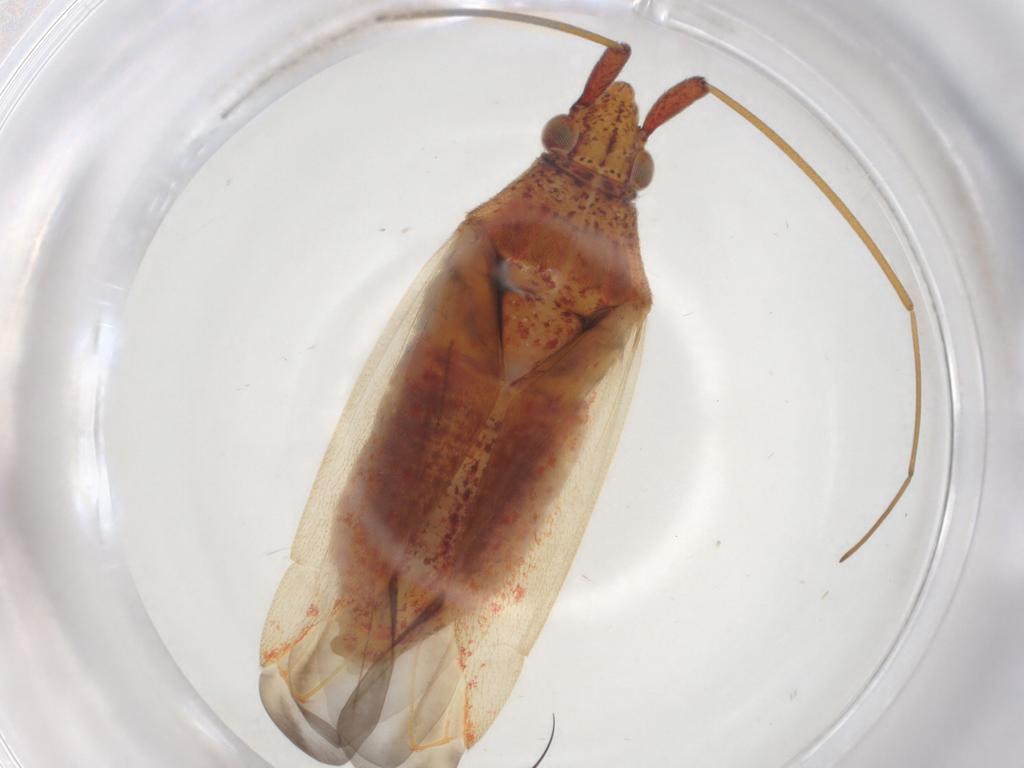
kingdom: Animalia
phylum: Arthropoda
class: Insecta
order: Hemiptera
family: Miridae
